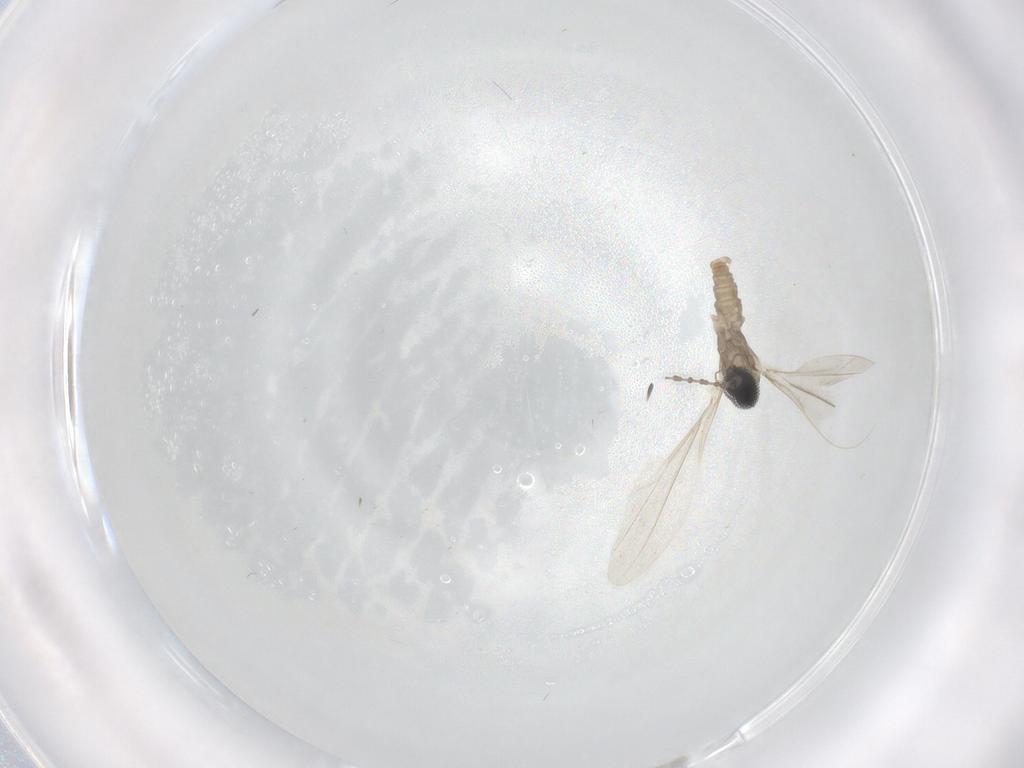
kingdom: Animalia
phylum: Arthropoda
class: Insecta
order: Diptera
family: Cecidomyiidae
